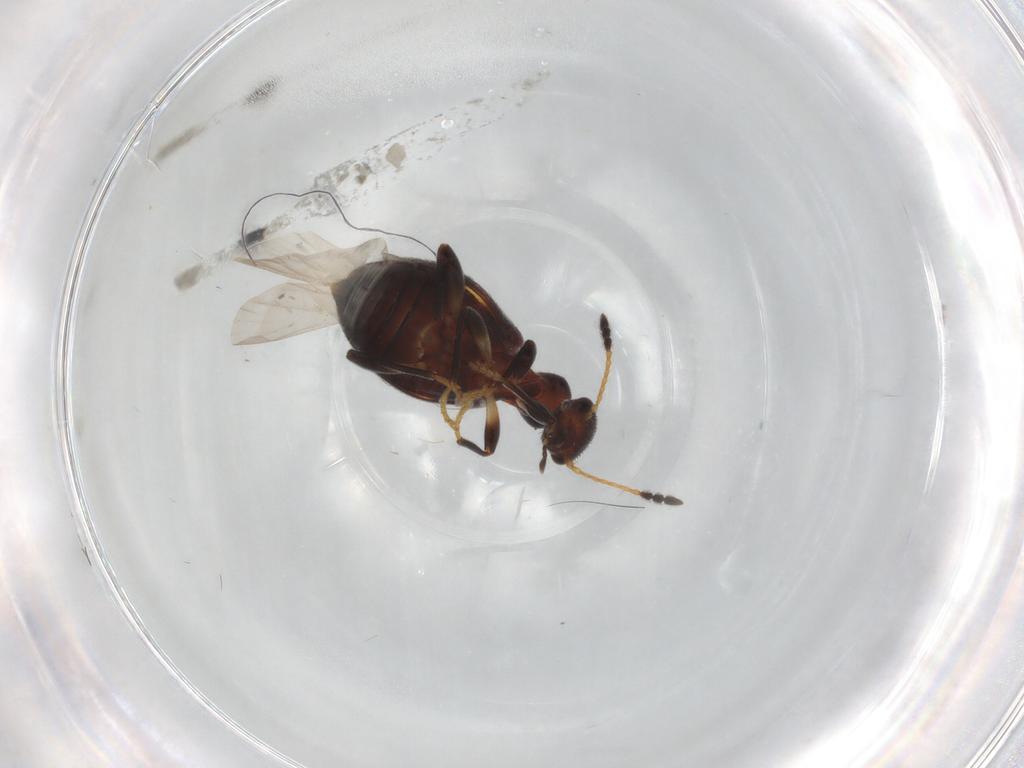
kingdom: Animalia
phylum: Arthropoda
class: Insecta
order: Coleoptera
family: Anthicidae
